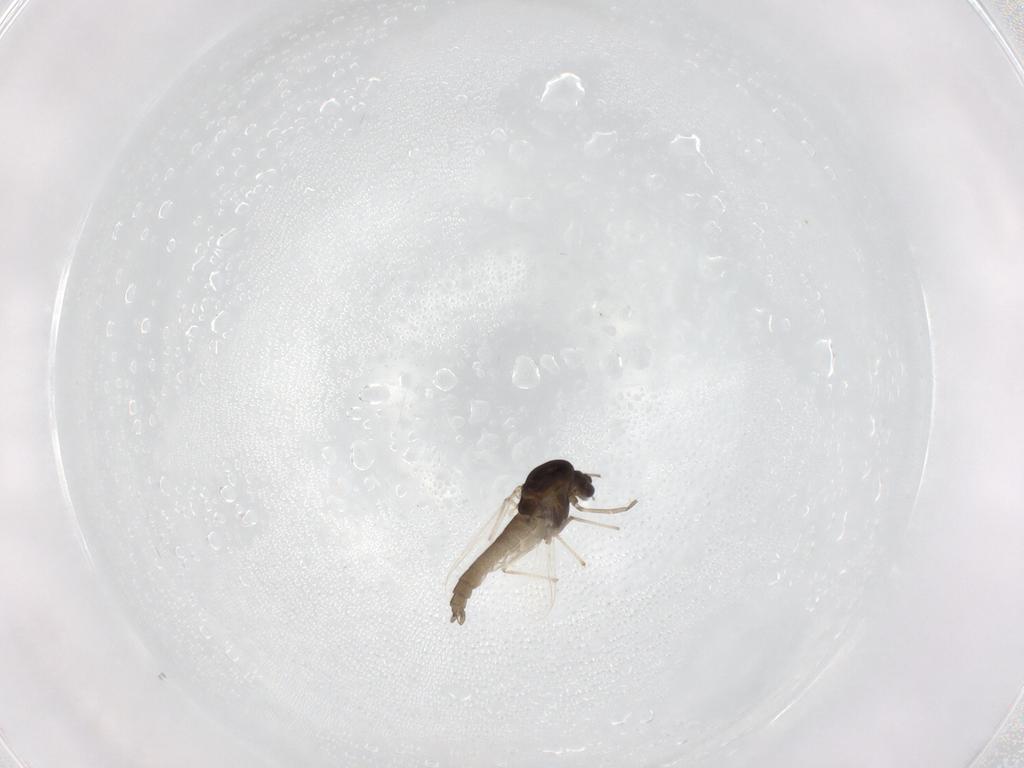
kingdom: Animalia
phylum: Arthropoda
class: Insecta
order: Diptera
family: Chironomidae
